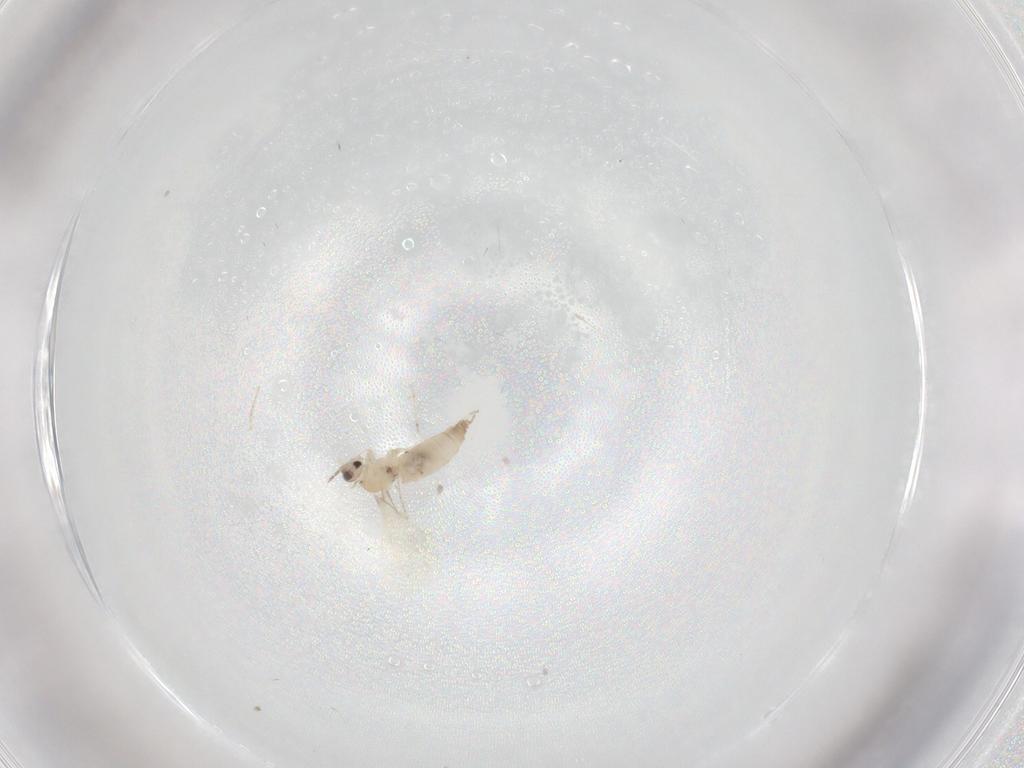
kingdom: Animalia
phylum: Arthropoda
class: Insecta
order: Diptera
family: Cecidomyiidae
